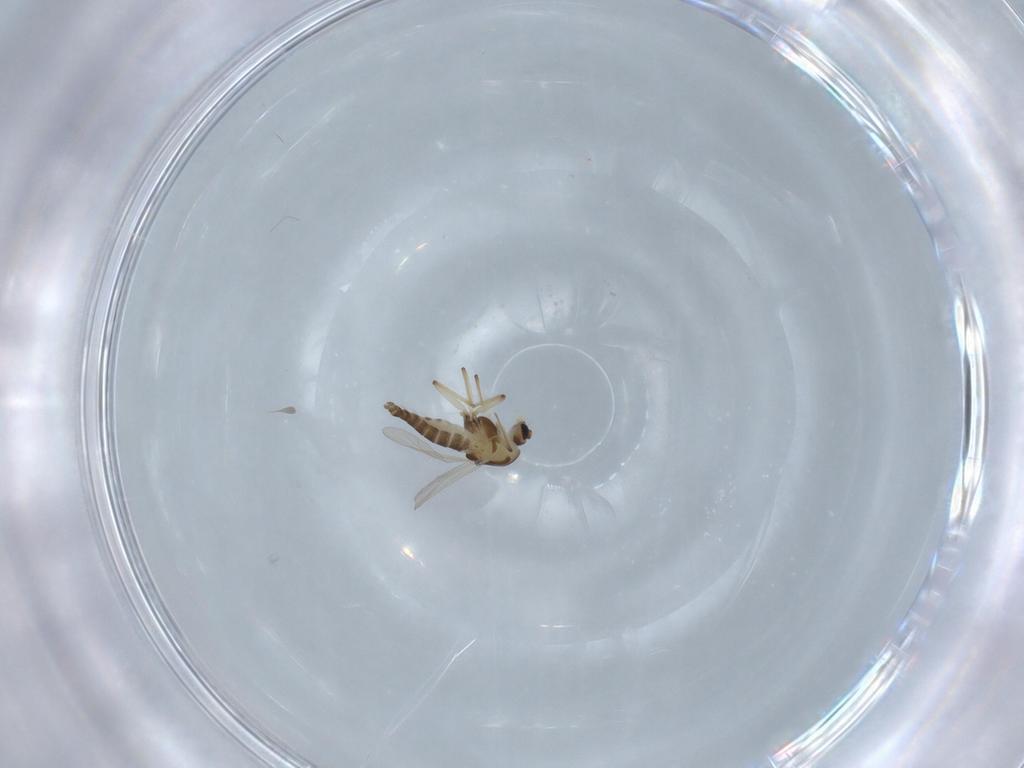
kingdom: Animalia
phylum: Arthropoda
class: Insecta
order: Diptera
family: Chironomidae
